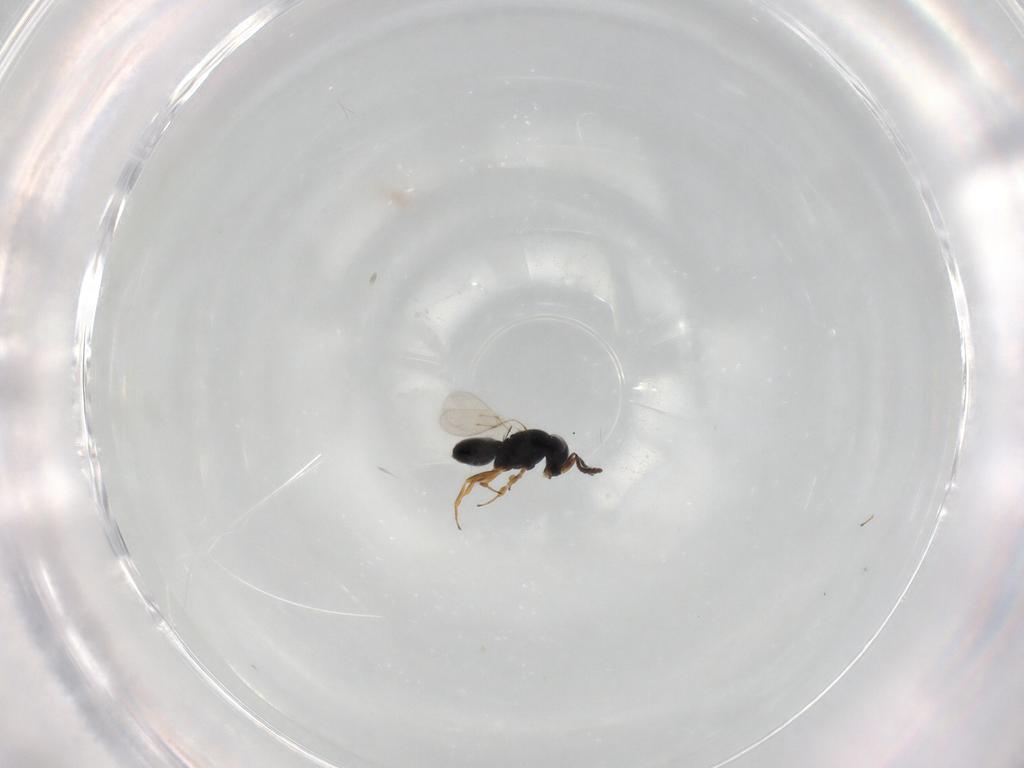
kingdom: Animalia
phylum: Arthropoda
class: Insecta
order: Hymenoptera
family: Scelionidae
